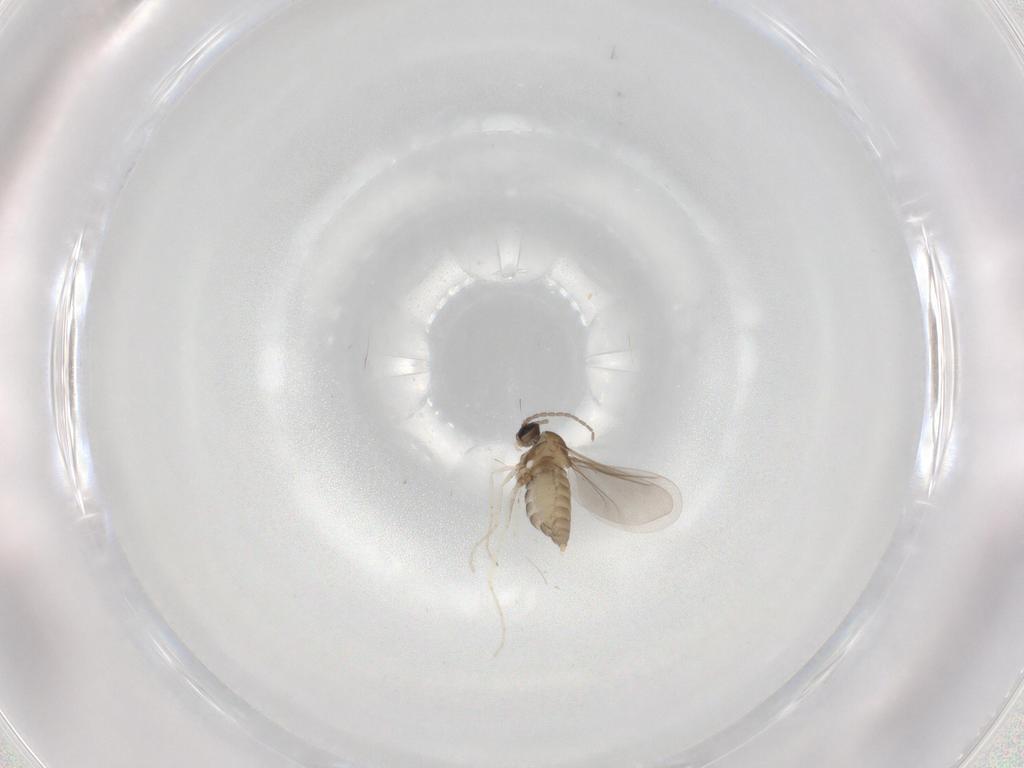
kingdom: Animalia
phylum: Arthropoda
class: Insecta
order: Diptera
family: Cecidomyiidae
